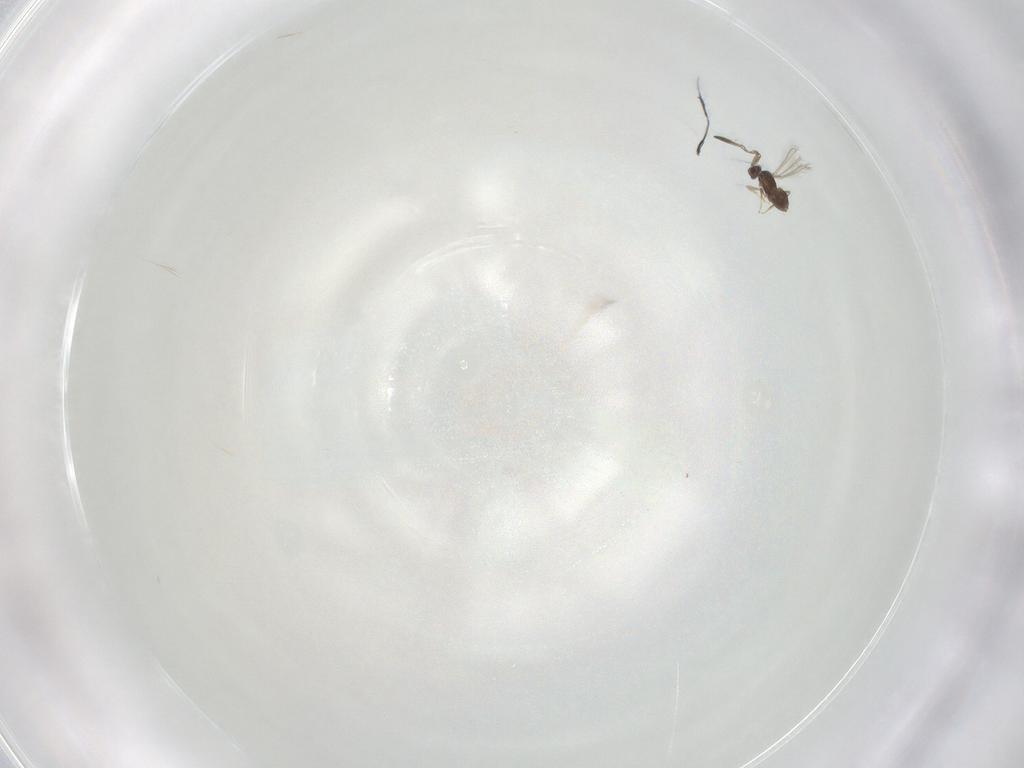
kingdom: Animalia
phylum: Arthropoda
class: Insecta
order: Hymenoptera
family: Mymaridae
